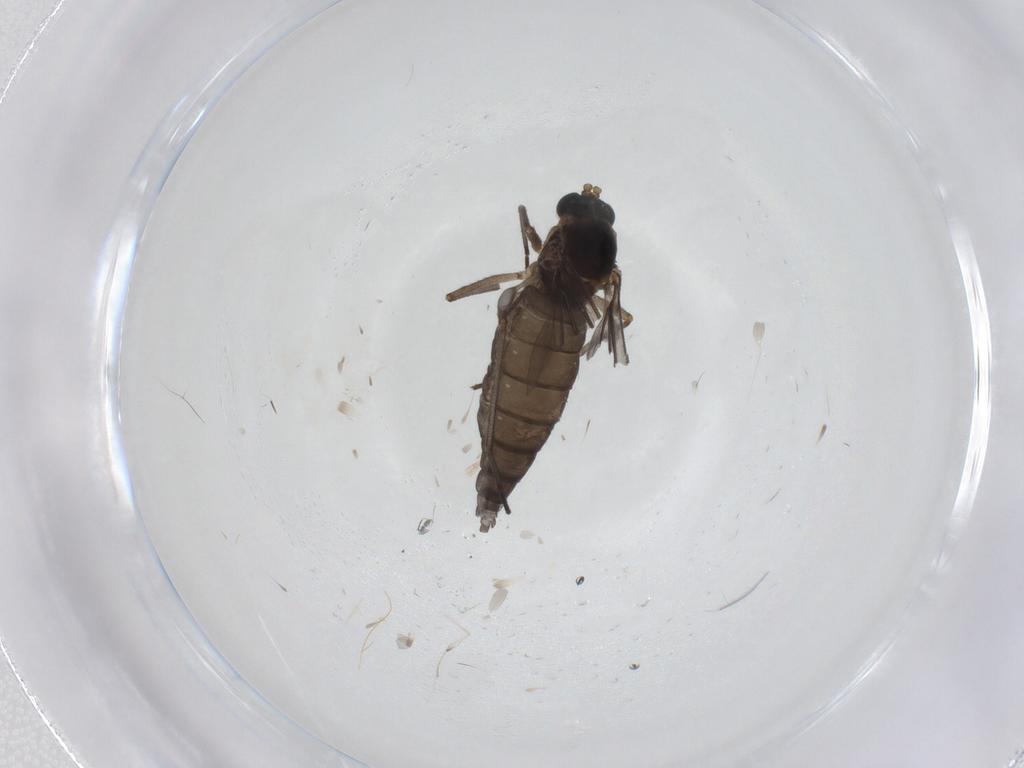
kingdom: Animalia
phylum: Arthropoda
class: Insecta
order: Diptera
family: Sciaridae
